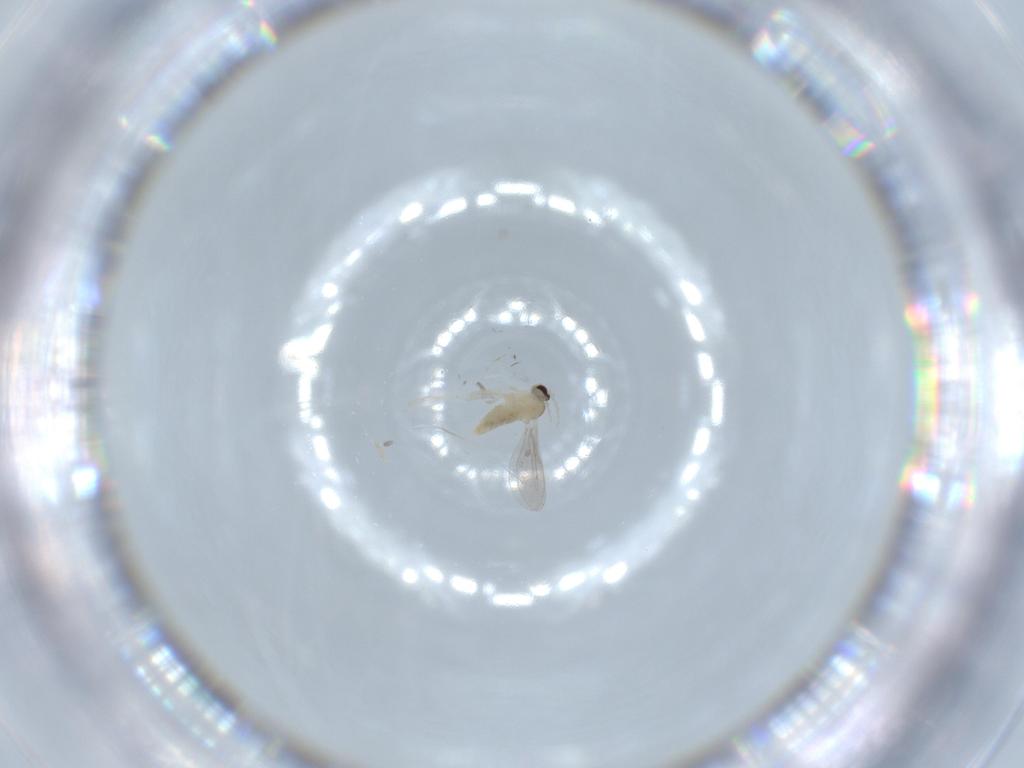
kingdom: Animalia
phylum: Arthropoda
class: Insecta
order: Diptera
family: Cecidomyiidae
